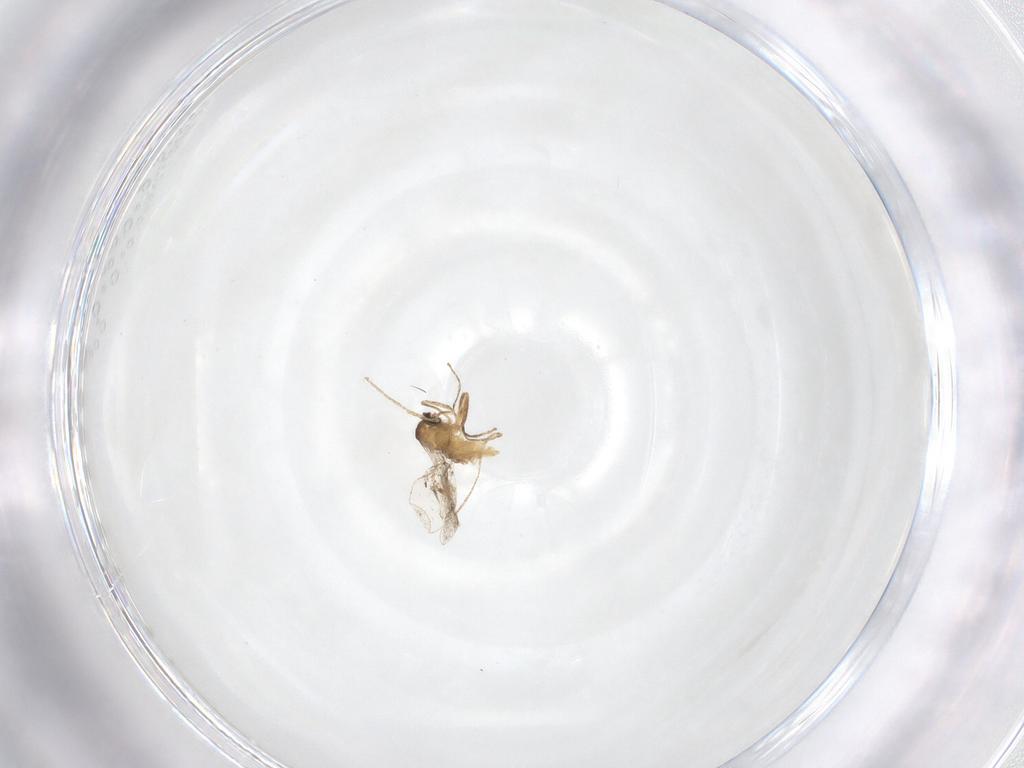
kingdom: Animalia
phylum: Arthropoda
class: Insecta
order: Diptera
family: Cecidomyiidae
